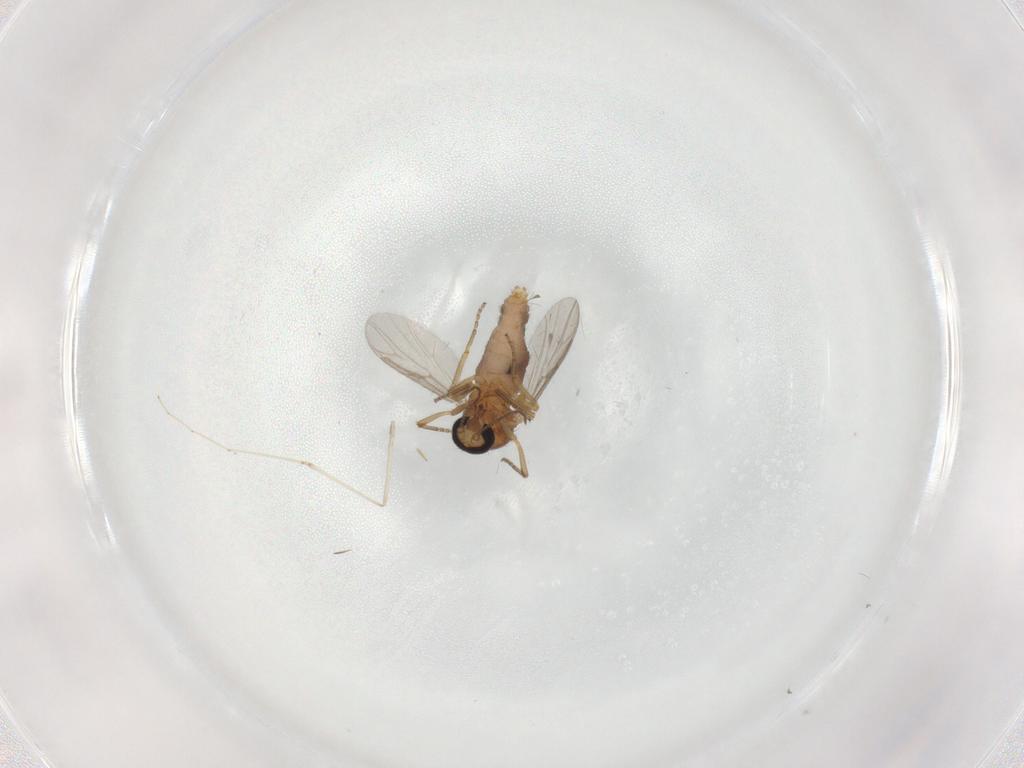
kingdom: Animalia
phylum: Arthropoda
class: Insecta
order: Diptera
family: Ceratopogonidae
